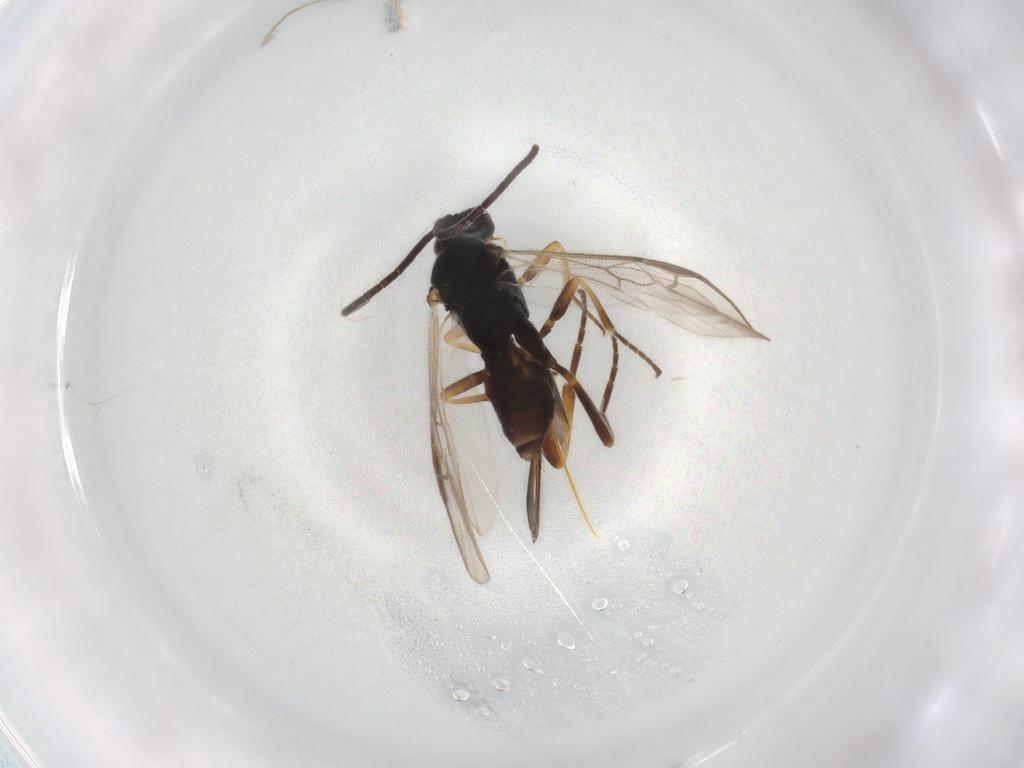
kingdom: Animalia
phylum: Arthropoda
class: Insecta
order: Hymenoptera
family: Braconidae
